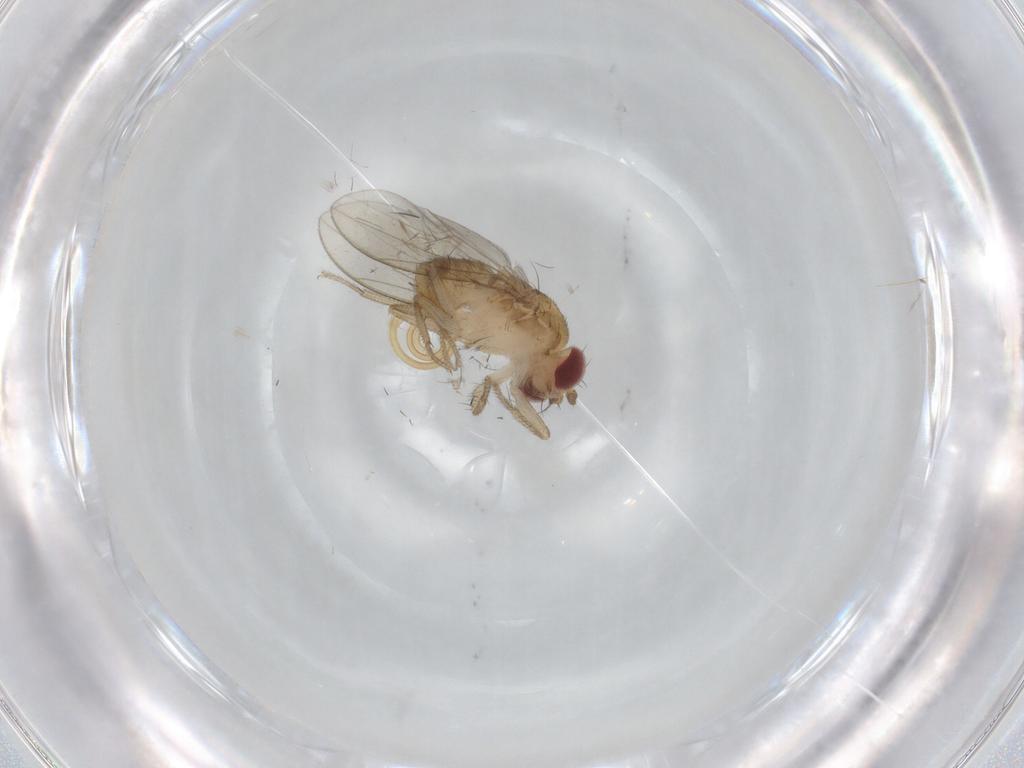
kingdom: Animalia
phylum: Arthropoda
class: Insecta
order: Diptera
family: Drosophilidae
